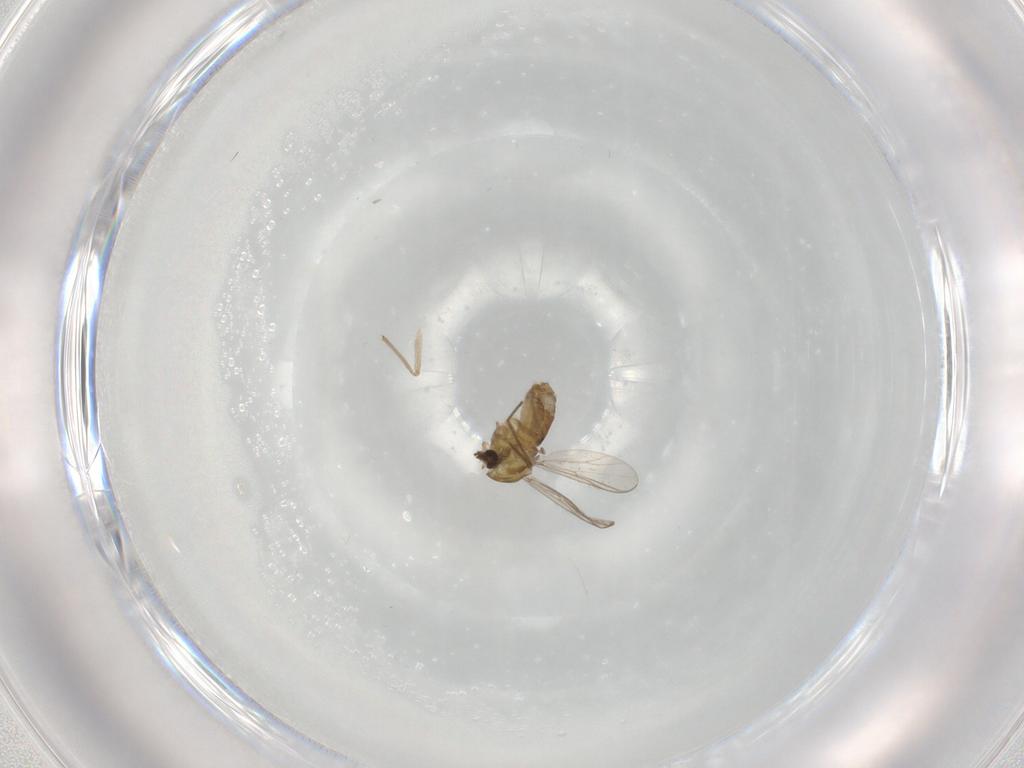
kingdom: Animalia
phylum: Arthropoda
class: Insecta
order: Diptera
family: Chironomidae
